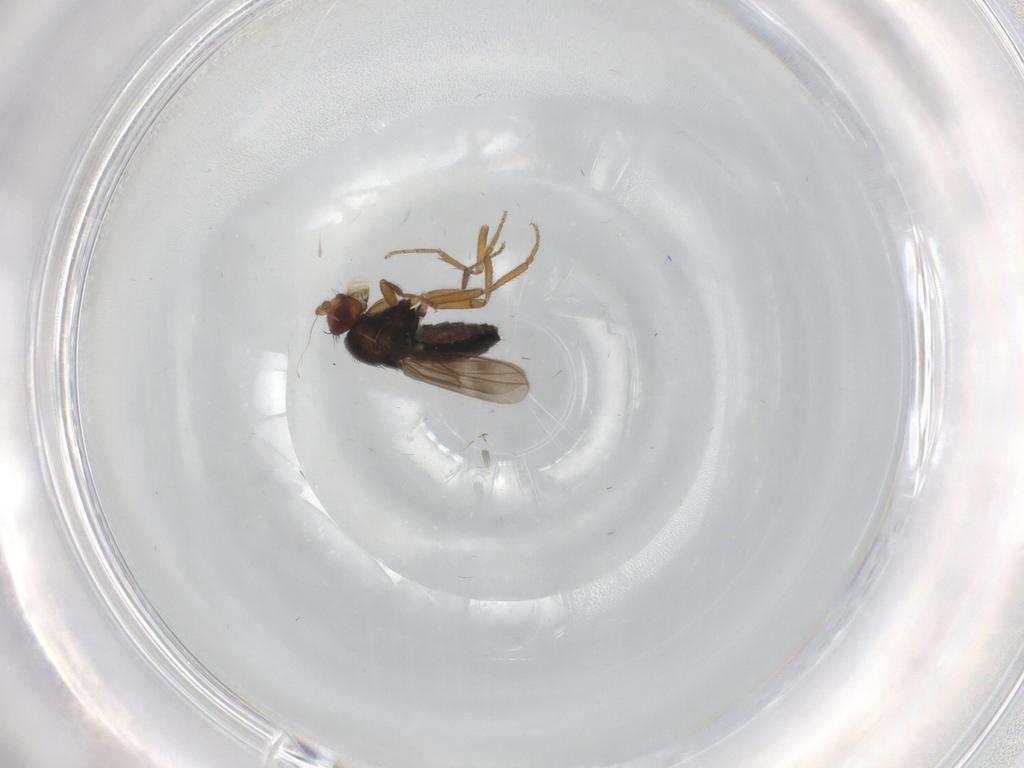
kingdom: Animalia
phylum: Arthropoda
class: Insecta
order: Diptera
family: Sphaeroceridae
